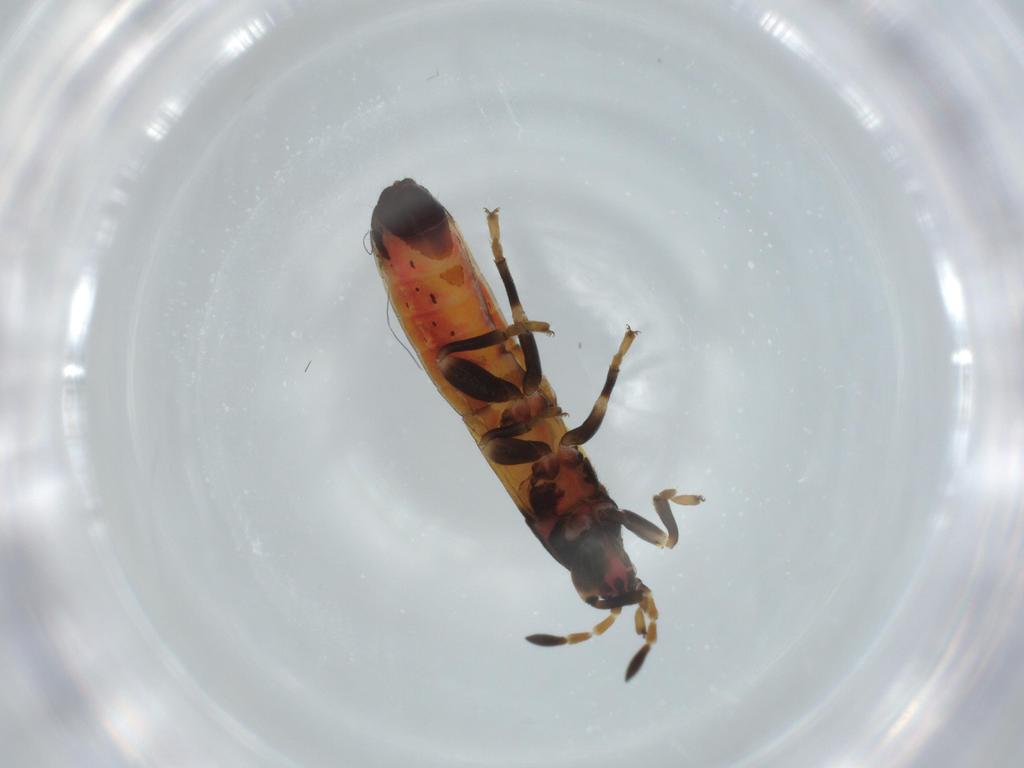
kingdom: Animalia
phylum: Arthropoda
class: Insecta
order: Hemiptera
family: Blissidae
